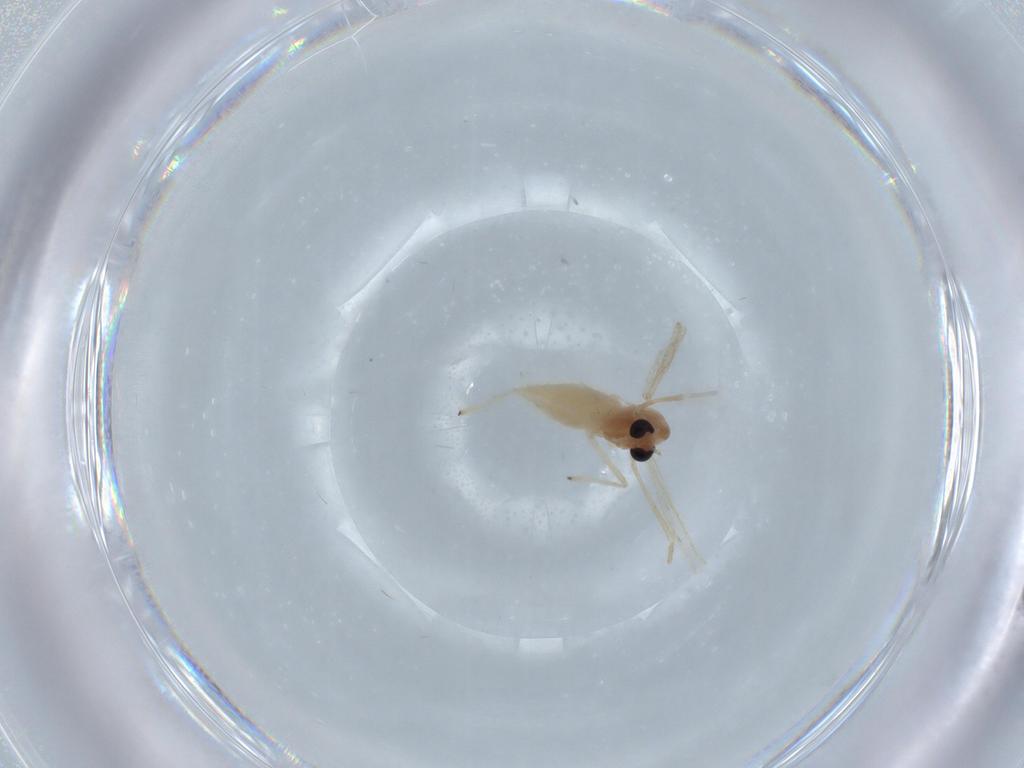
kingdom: Animalia
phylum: Arthropoda
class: Insecta
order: Diptera
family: Chironomidae
